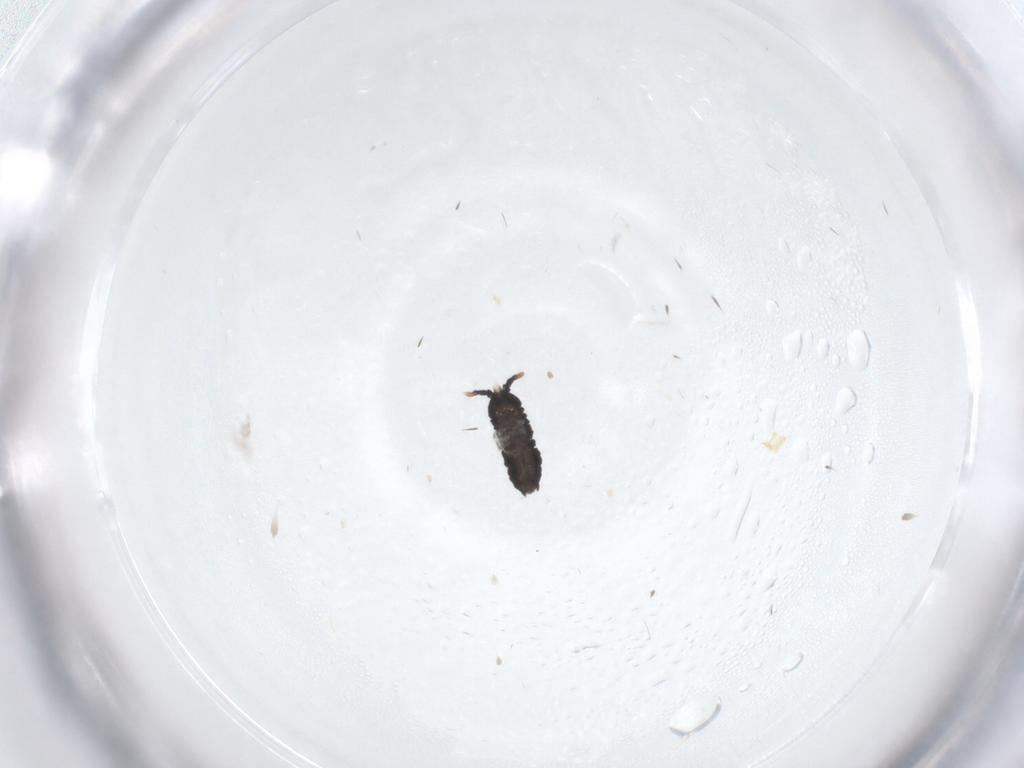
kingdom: Animalia
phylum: Arthropoda
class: Collembola
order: Poduromorpha
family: Neanuridae
